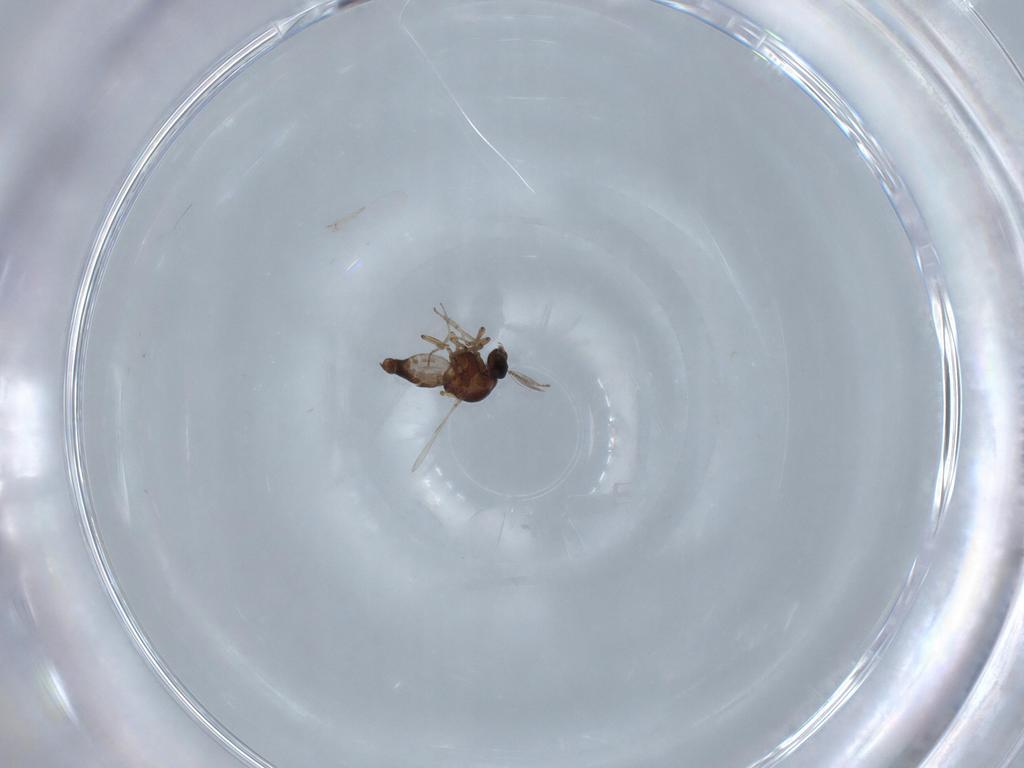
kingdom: Animalia
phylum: Arthropoda
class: Insecta
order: Diptera
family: Ceratopogonidae
